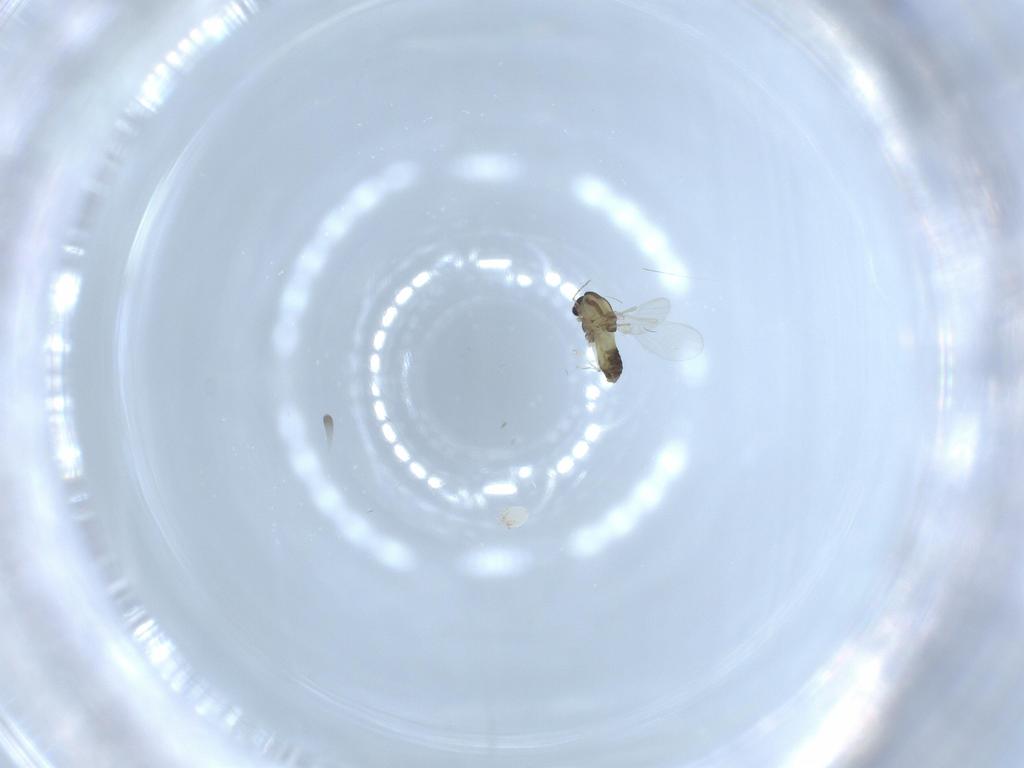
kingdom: Animalia
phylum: Arthropoda
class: Insecta
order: Diptera
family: Chironomidae
